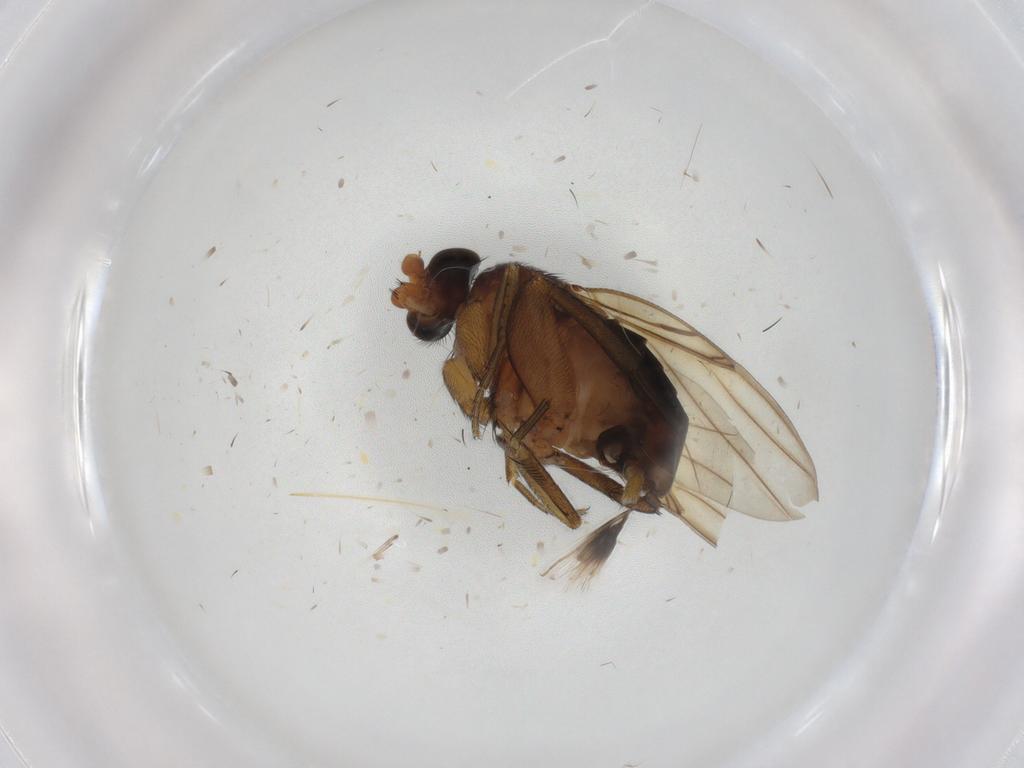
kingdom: Animalia
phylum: Arthropoda
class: Insecta
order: Diptera
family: Phoridae
